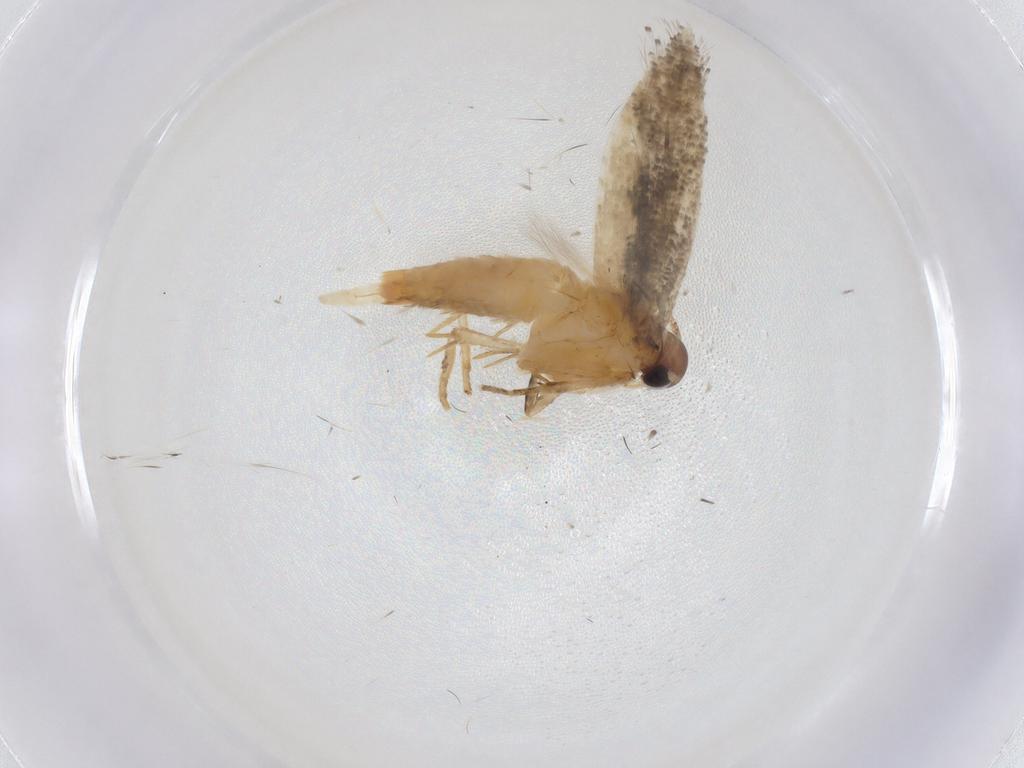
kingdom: Animalia
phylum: Arthropoda
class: Insecta
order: Lepidoptera
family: Gelechiidae
